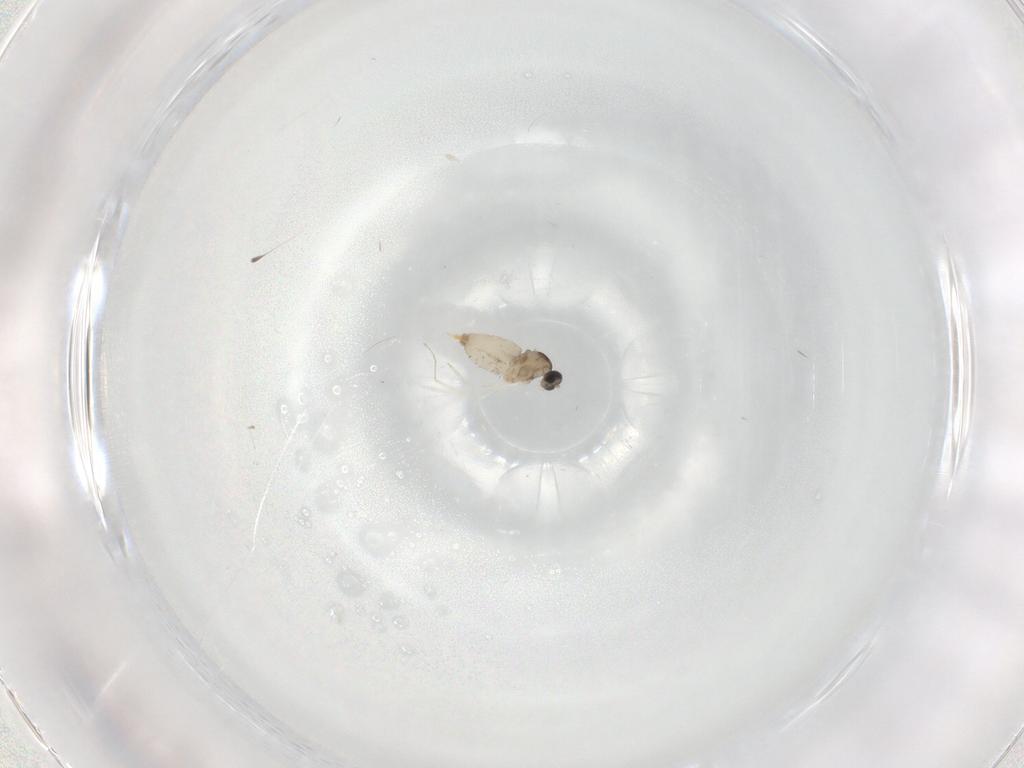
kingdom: Animalia
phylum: Arthropoda
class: Insecta
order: Diptera
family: Cecidomyiidae
